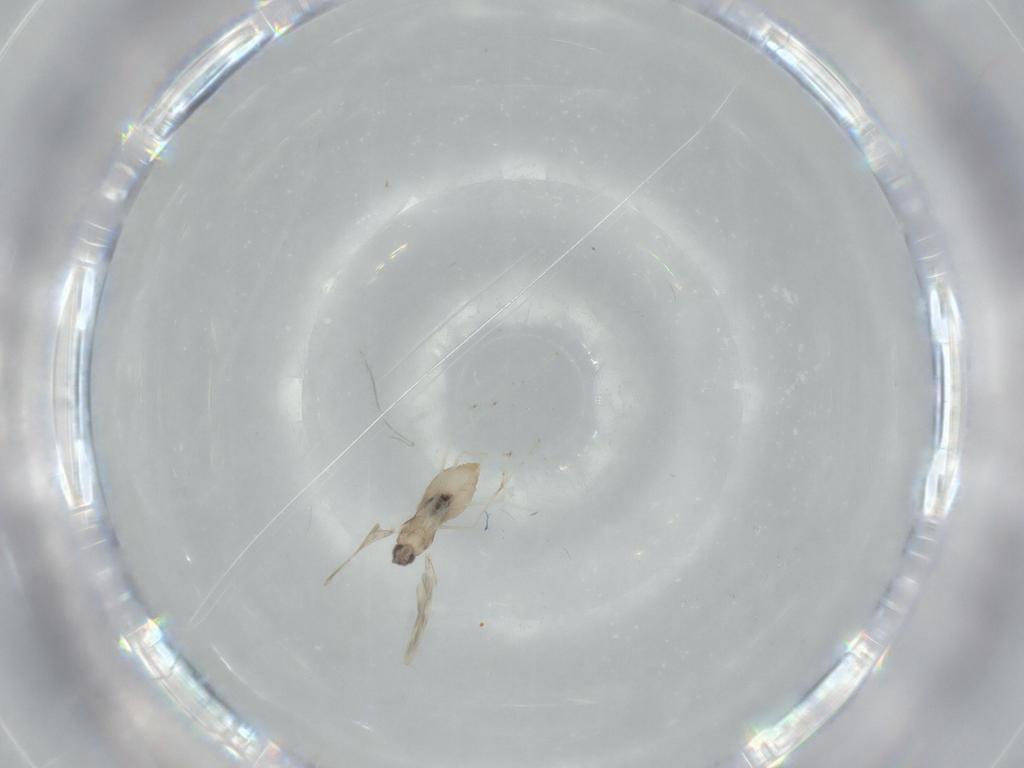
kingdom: Animalia
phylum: Arthropoda
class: Insecta
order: Diptera
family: Cecidomyiidae
